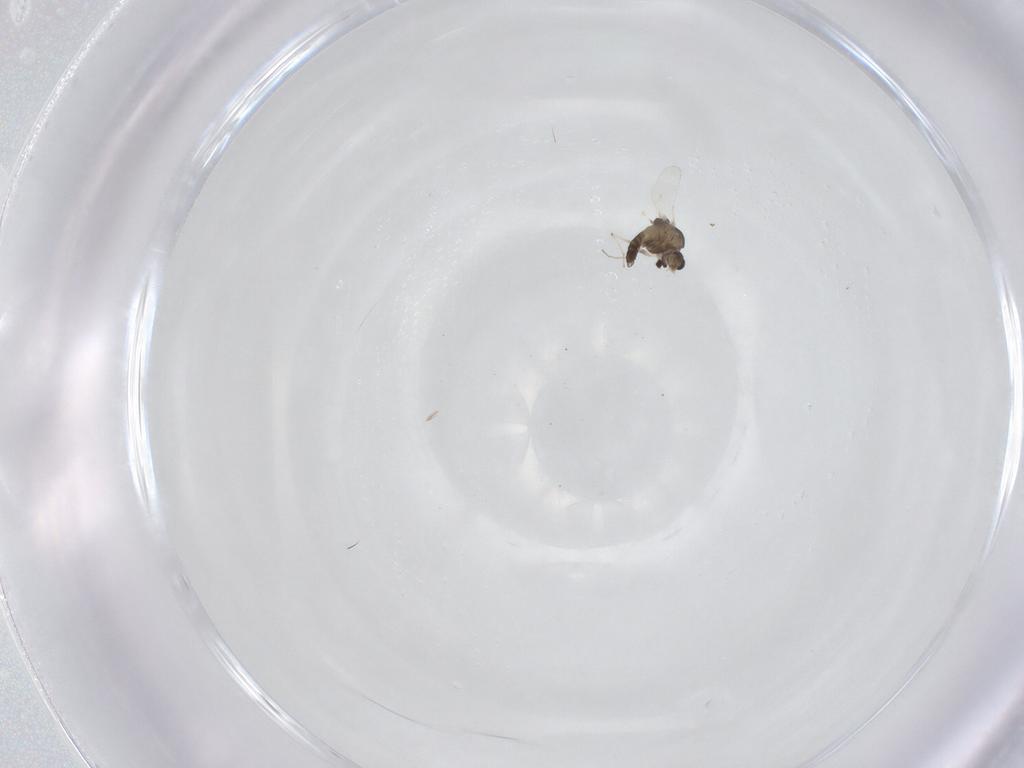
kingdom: Animalia
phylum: Arthropoda
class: Insecta
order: Diptera
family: Chironomidae
